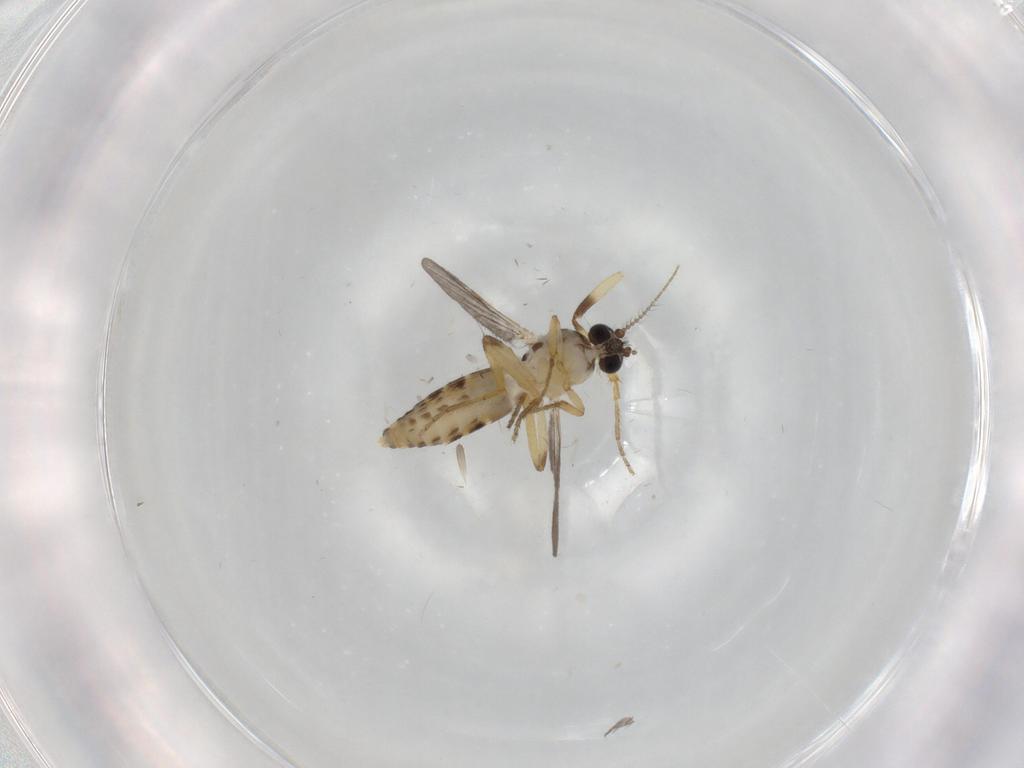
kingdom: Animalia
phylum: Arthropoda
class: Insecta
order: Diptera
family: Ceratopogonidae
